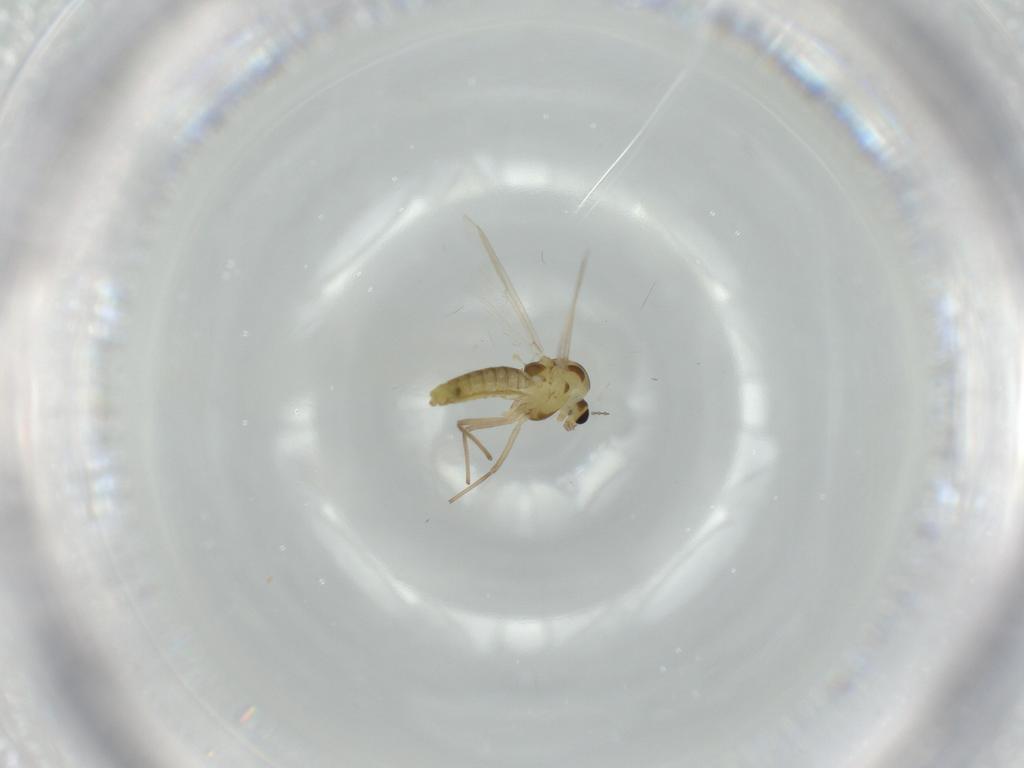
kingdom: Animalia
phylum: Arthropoda
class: Insecta
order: Diptera
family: Ceratopogonidae
